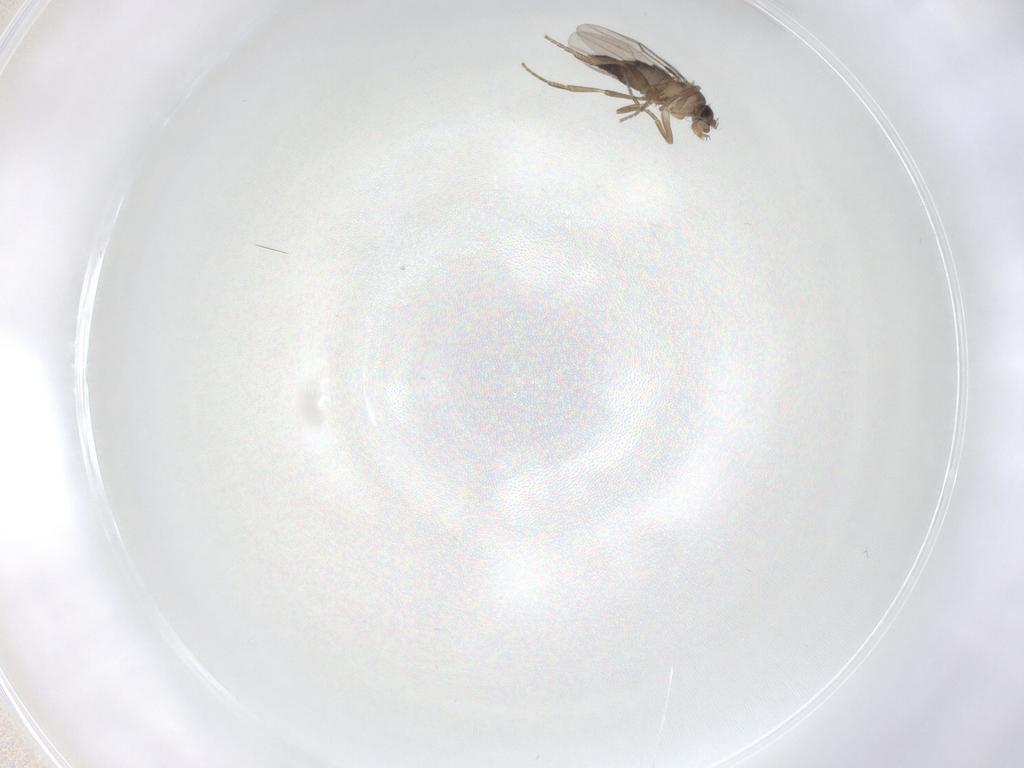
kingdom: Animalia
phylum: Arthropoda
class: Insecta
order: Diptera
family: Phoridae
